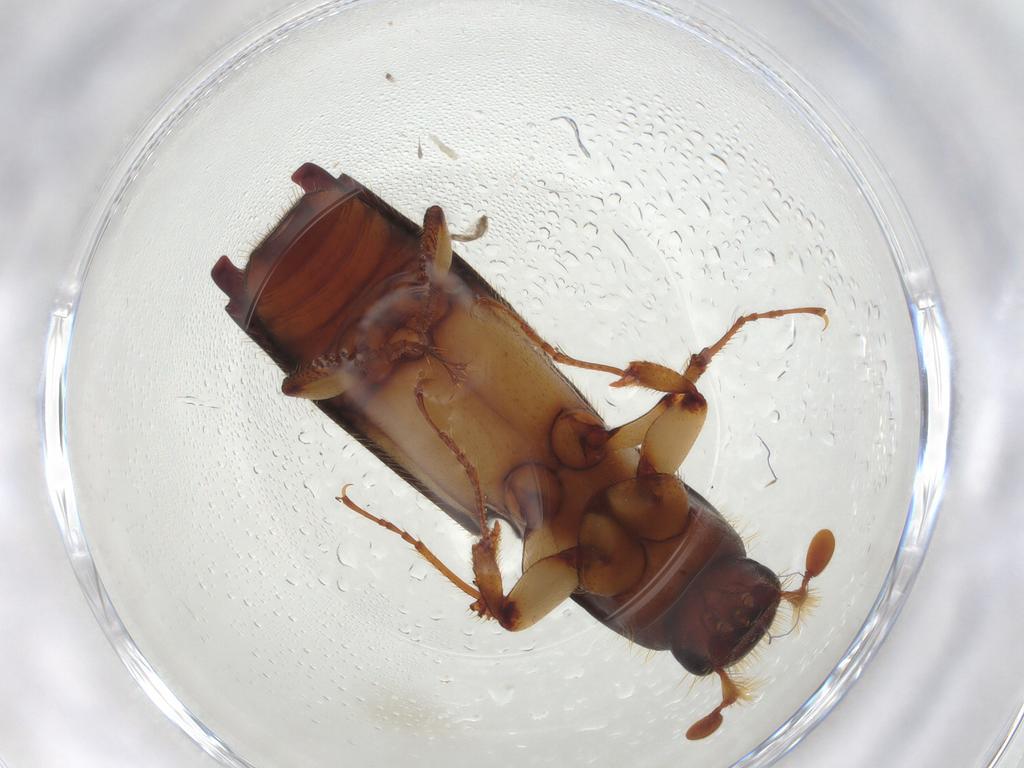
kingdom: Animalia
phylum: Arthropoda
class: Insecta
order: Coleoptera
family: Curculionidae
